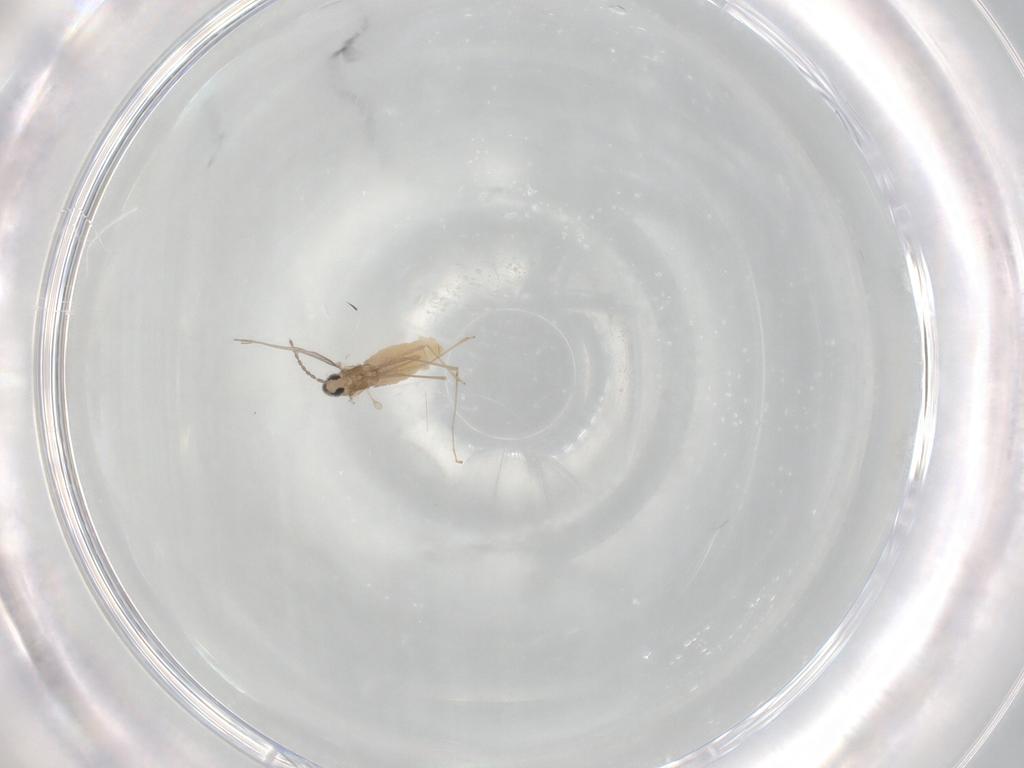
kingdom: Animalia
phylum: Arthropoda
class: Insecta
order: Diptera
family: Cecidomyiidae
